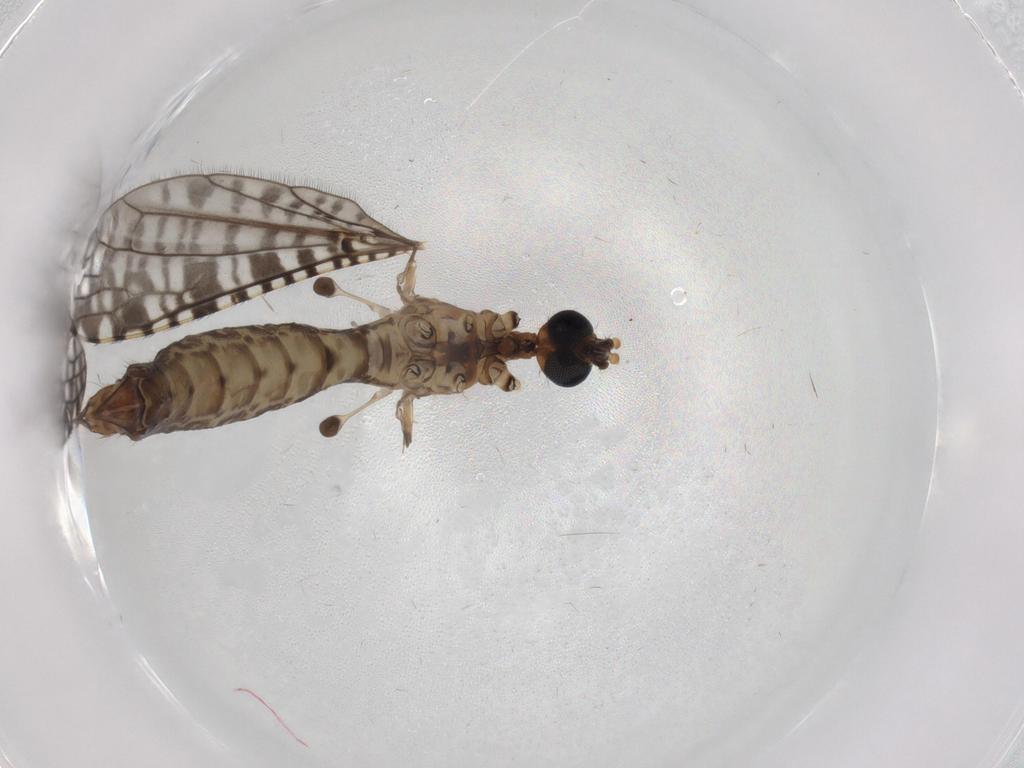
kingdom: Animalia
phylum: Arthropoda
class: Insecta
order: Diptera
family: Limoniidae
